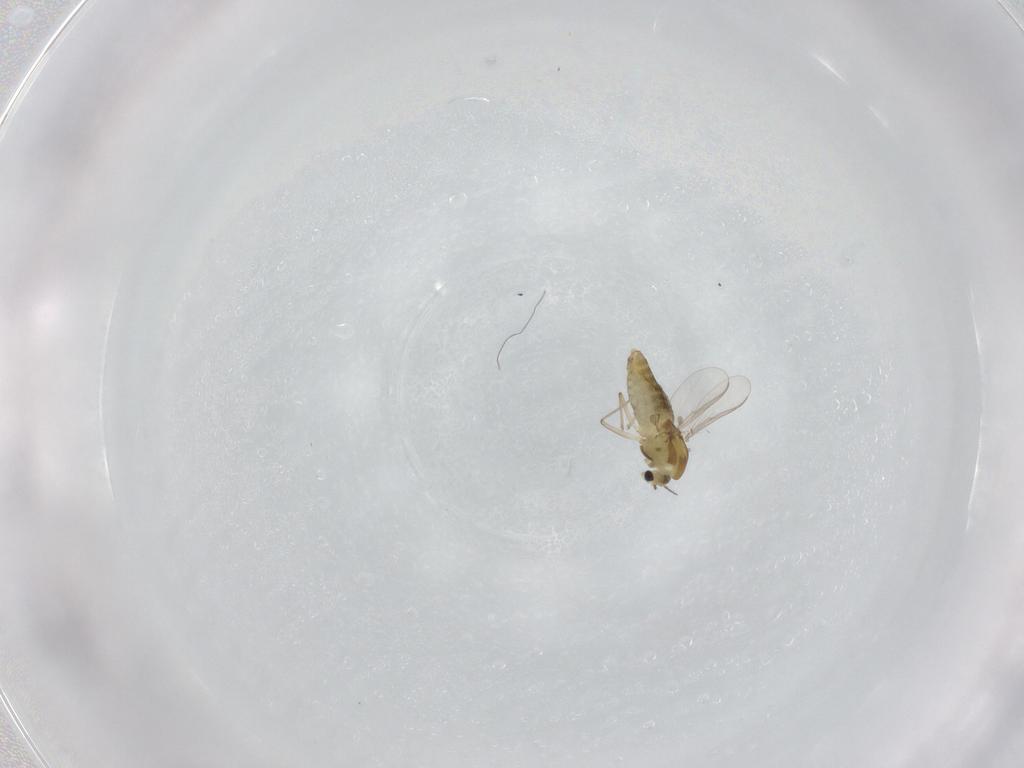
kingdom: Animalia
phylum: Arthropoda
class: Insecta
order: Diptera
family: Chironomidae
